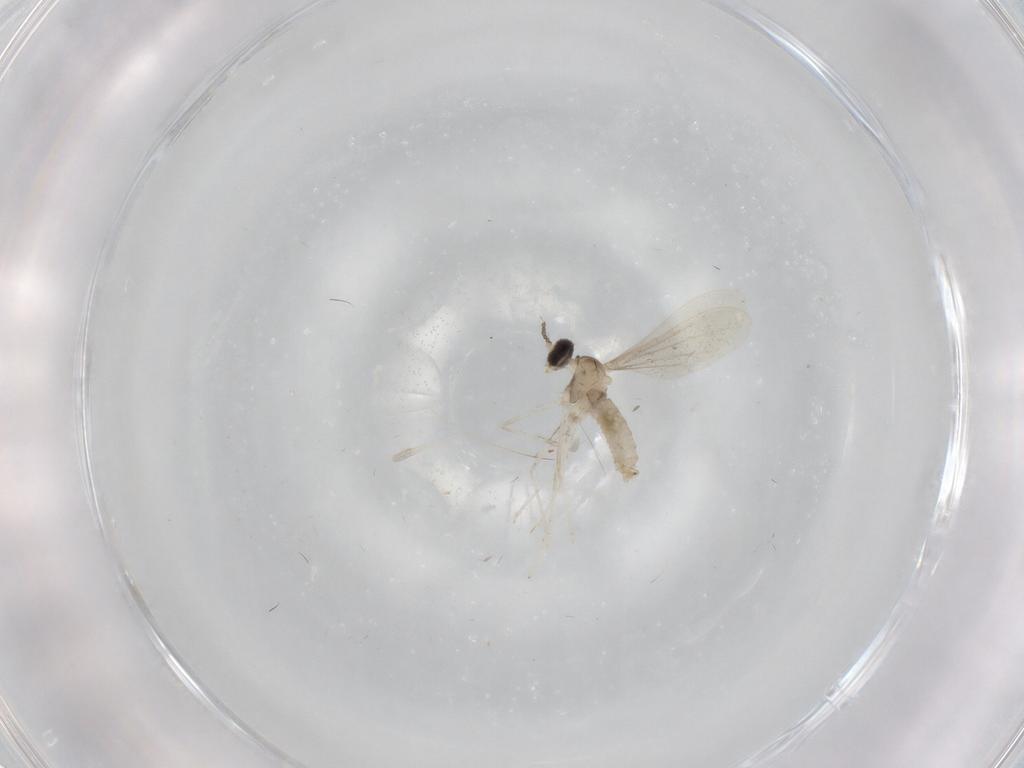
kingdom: Animalia
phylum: Arthropoda
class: Insecta
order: Diptera
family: Cecidomyiidae
